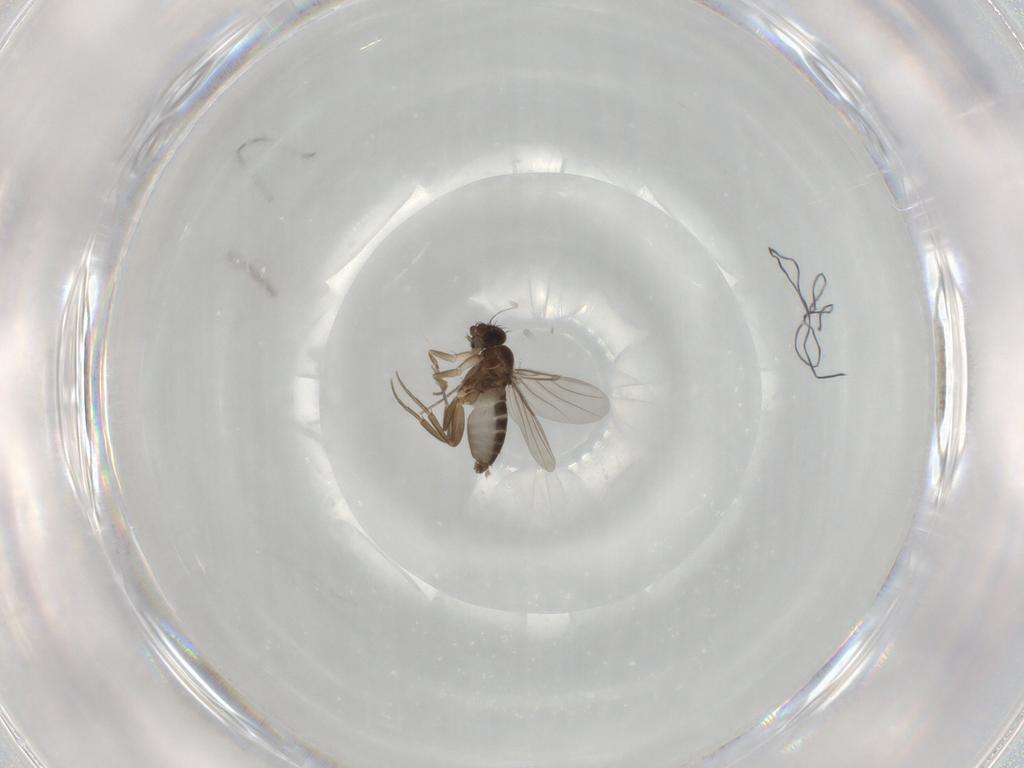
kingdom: Animalia
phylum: Arthropoda
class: Insecta
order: Diptera
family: Phoridae
